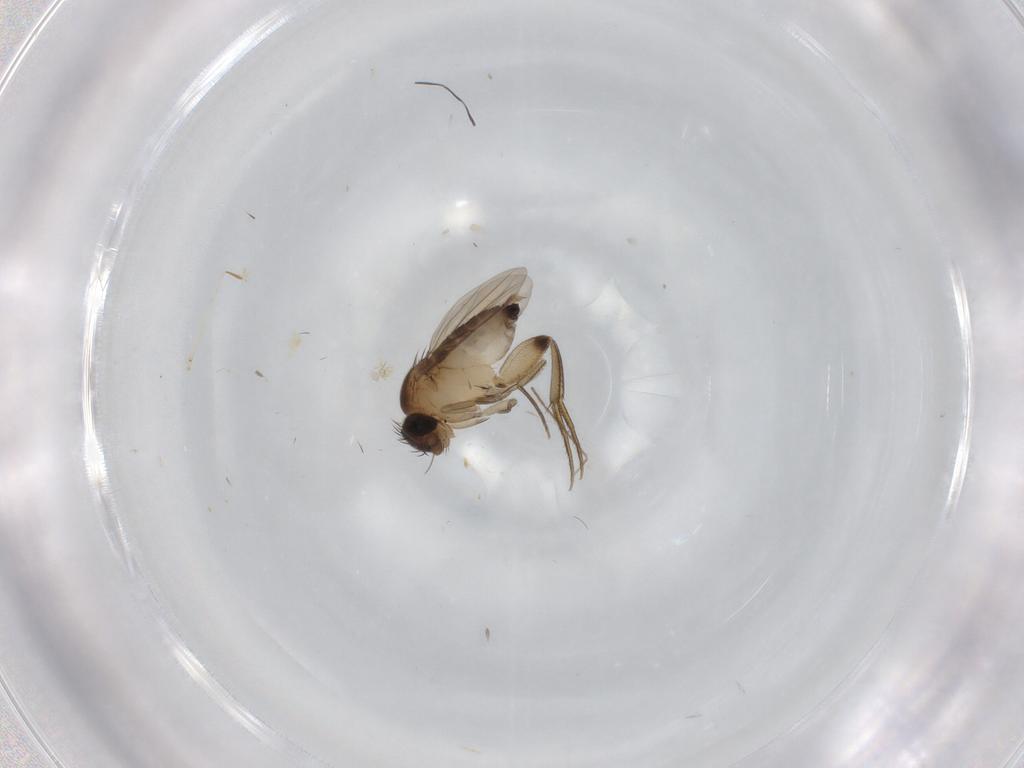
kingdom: Animalia
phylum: Arthropoda
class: Insecta
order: Diptera
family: Phoridae
